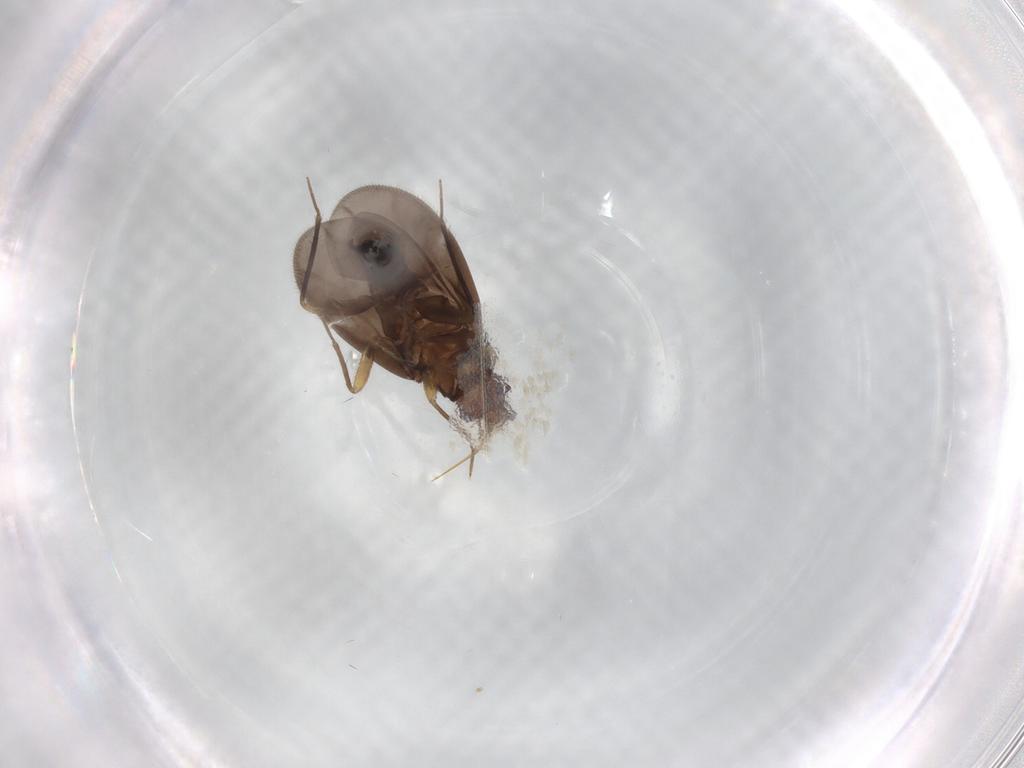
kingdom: Animalia
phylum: Arthropoda
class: Insecta
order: Hemiptera
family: Ceratocombidae
